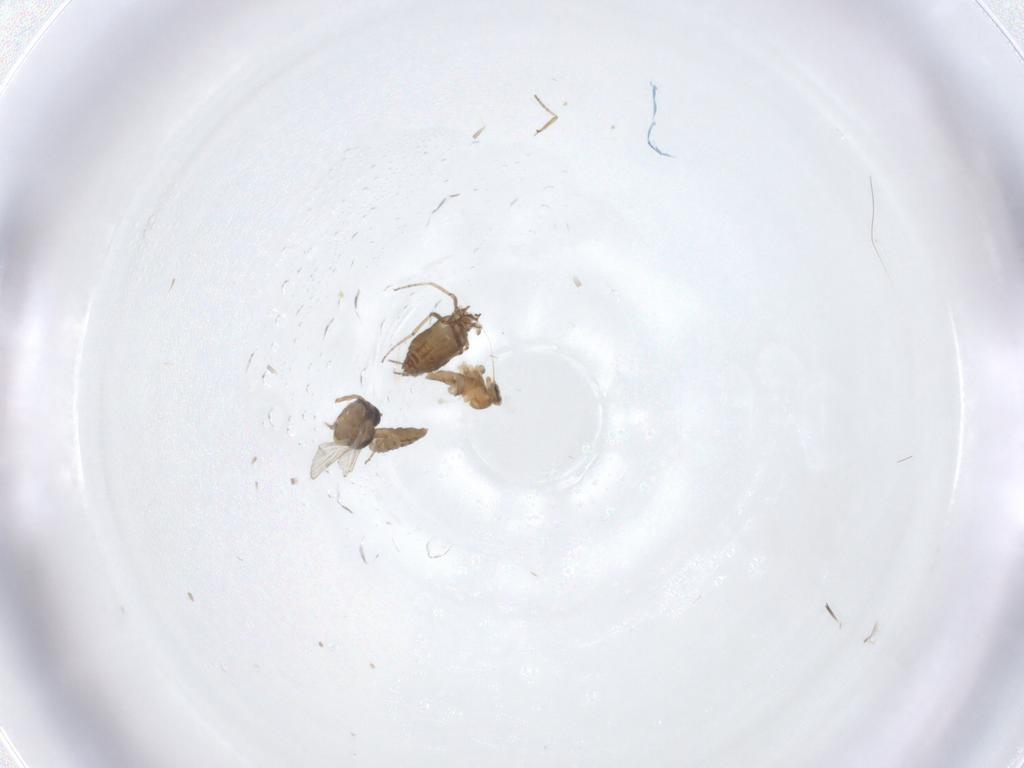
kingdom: Animalia
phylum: Arthropoda
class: Insecta
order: Diptera
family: Ceratopogonidae
